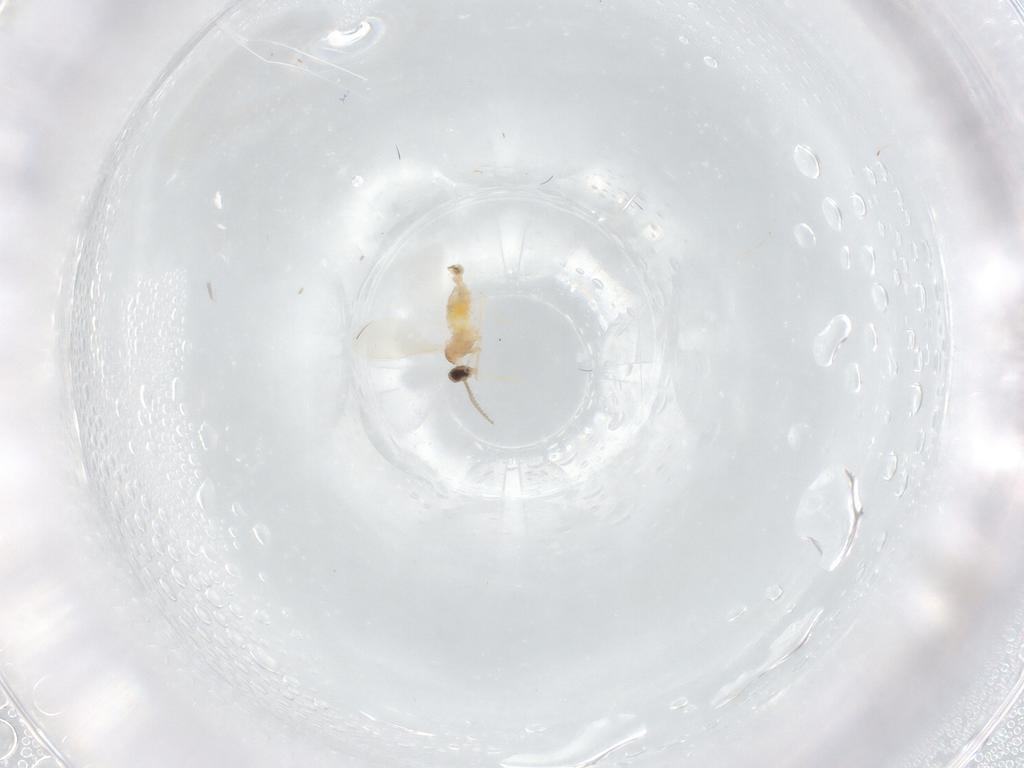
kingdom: Animalia
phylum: Arthropoda
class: Insecta
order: Diptera
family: Cecidomyiidae
